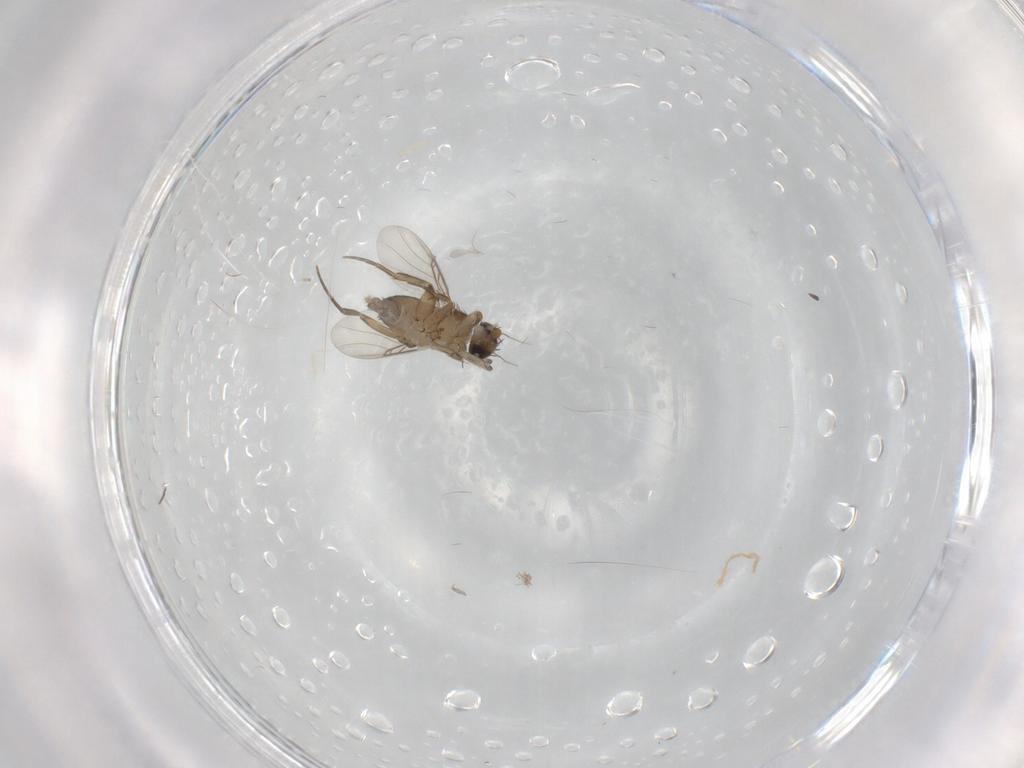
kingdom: Animalia
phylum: Arthropoda
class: Insecta
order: Diptera
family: Phoridae
